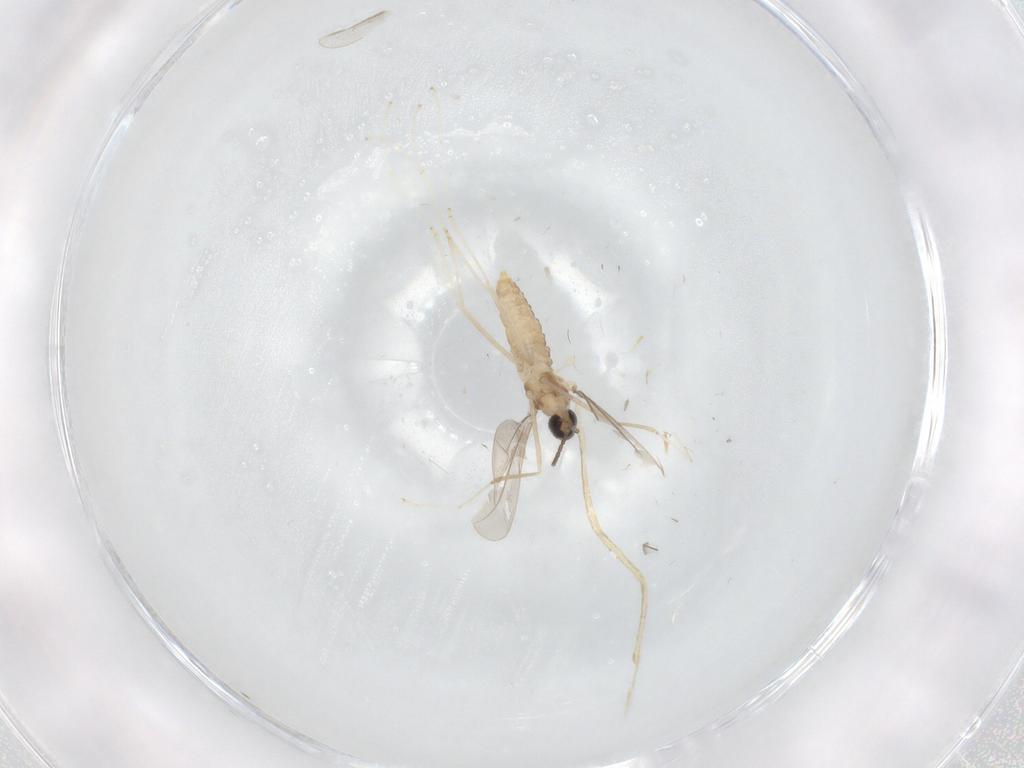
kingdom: Animalia
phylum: Arthropoda
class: Insecta
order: Diptera
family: Cecidomyiidae
